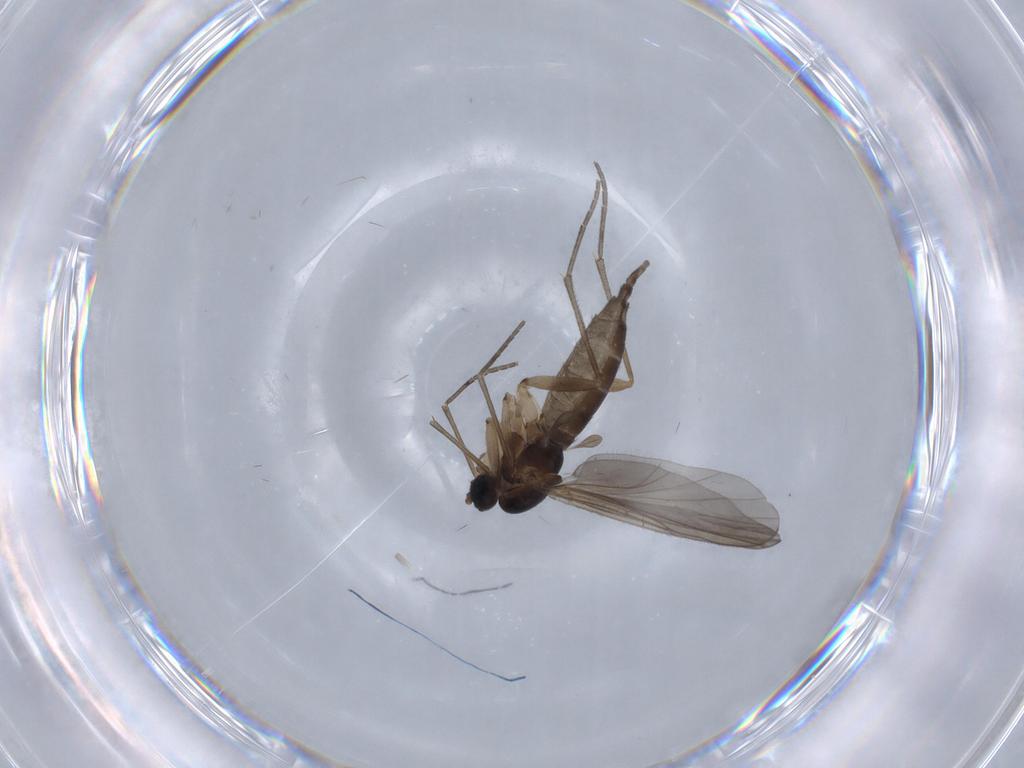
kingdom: Animalia
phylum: Arthropoda
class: Insecta
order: Diptera
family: Sciaridae
